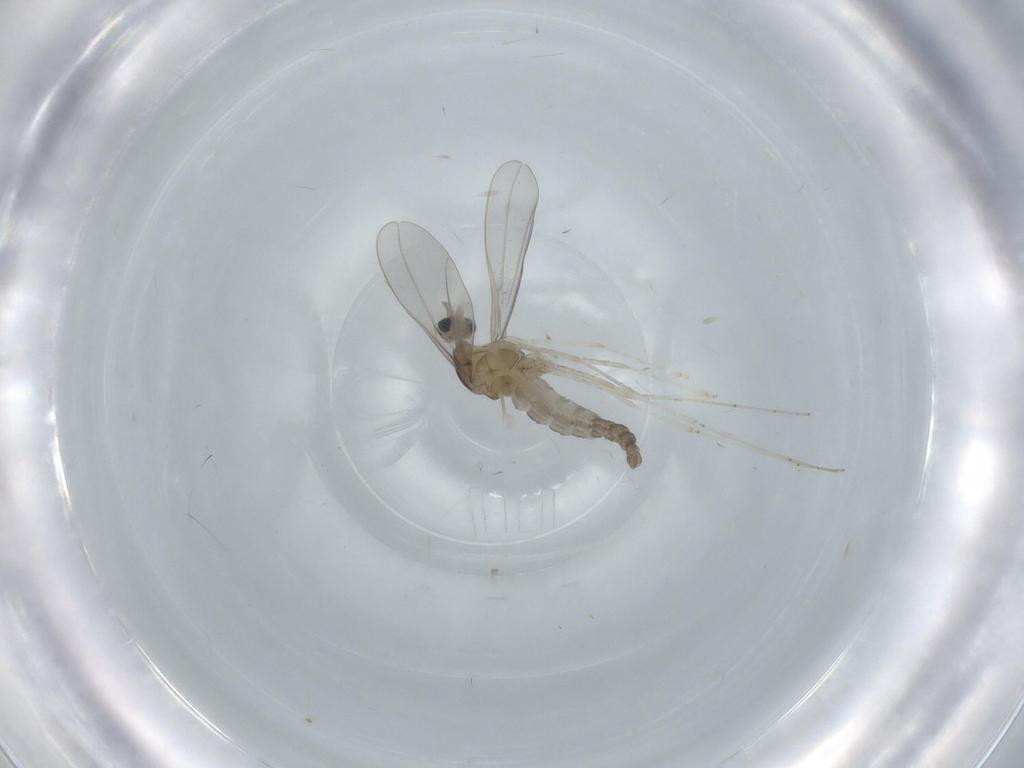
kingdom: Animalia
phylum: Arthropoda
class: Insecta
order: Diptera
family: Cecidomyiidae
